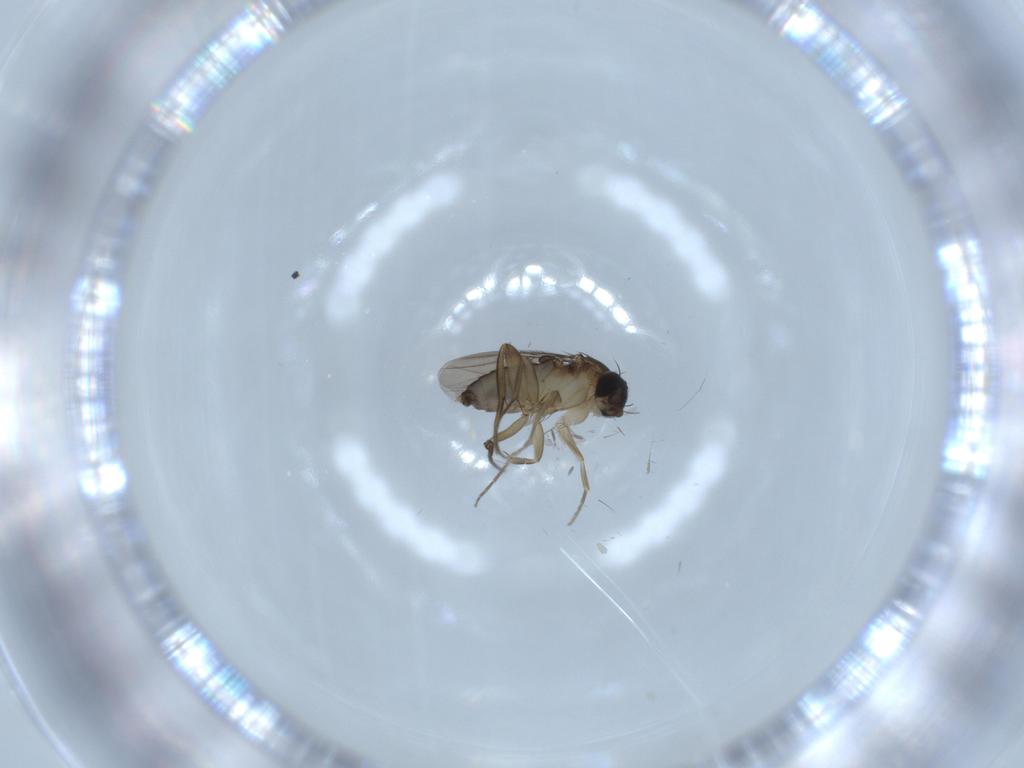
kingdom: Animalia
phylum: Arthropoda
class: Insecta
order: Diptera
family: Phoridae
